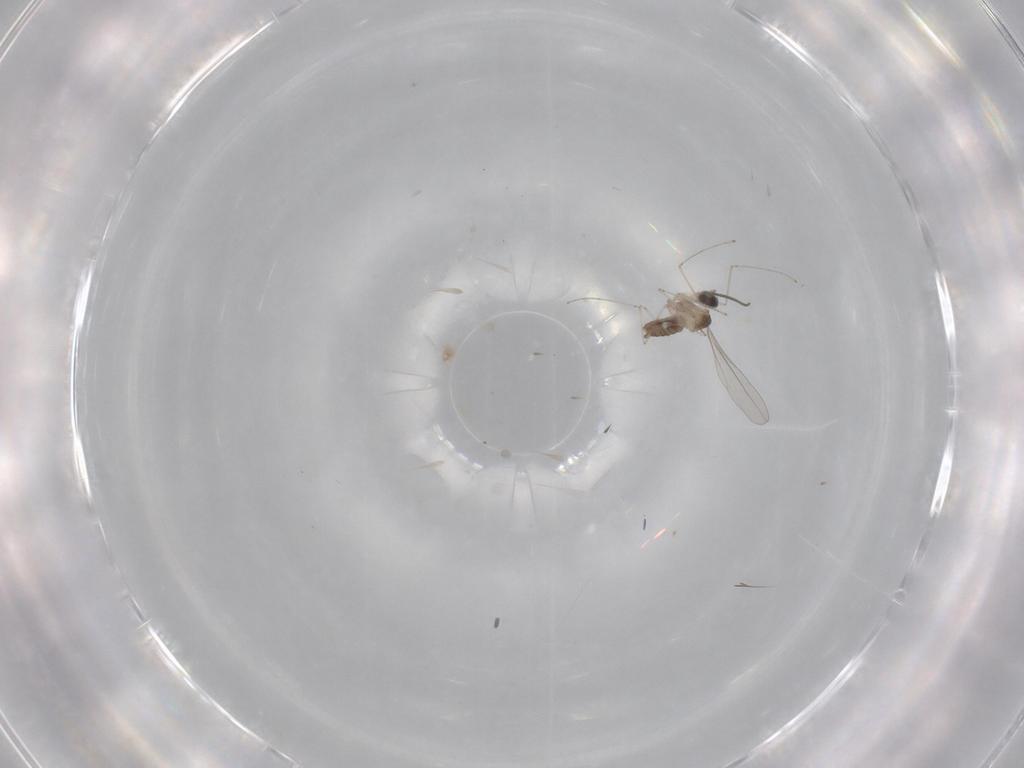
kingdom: Animalia
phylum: Arthropoda
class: Insecta
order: Diptera
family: Cecidomyiidae
